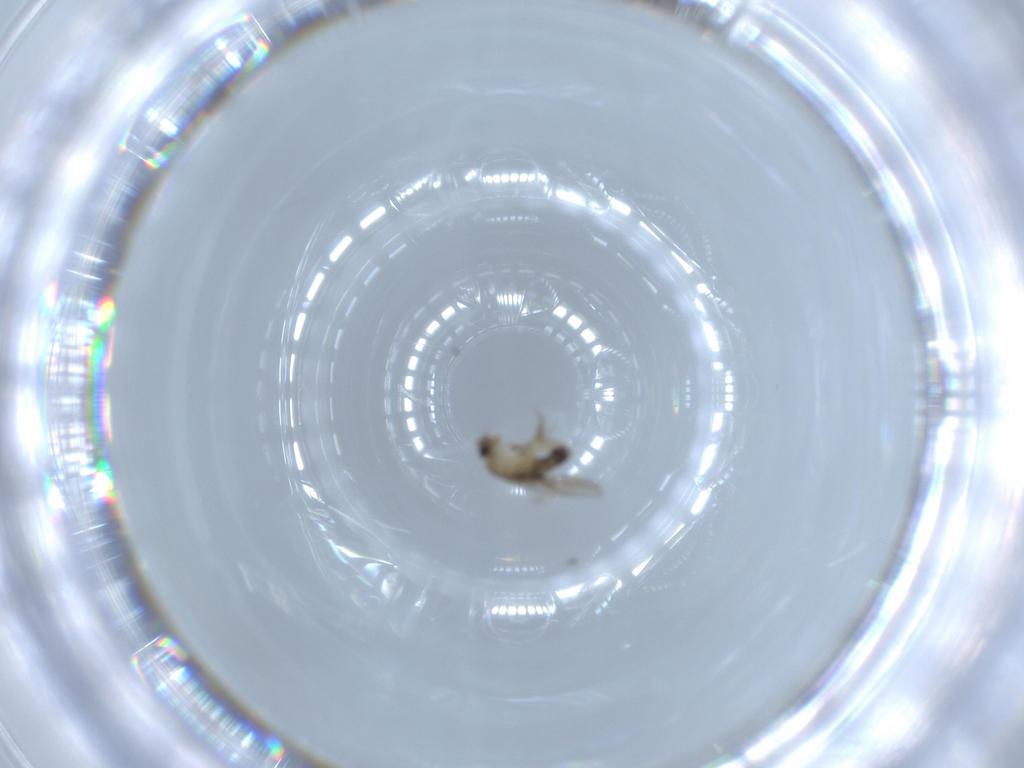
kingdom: Animalia
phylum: Arthropoda
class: Insecta
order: Diptera
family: Phoridae
